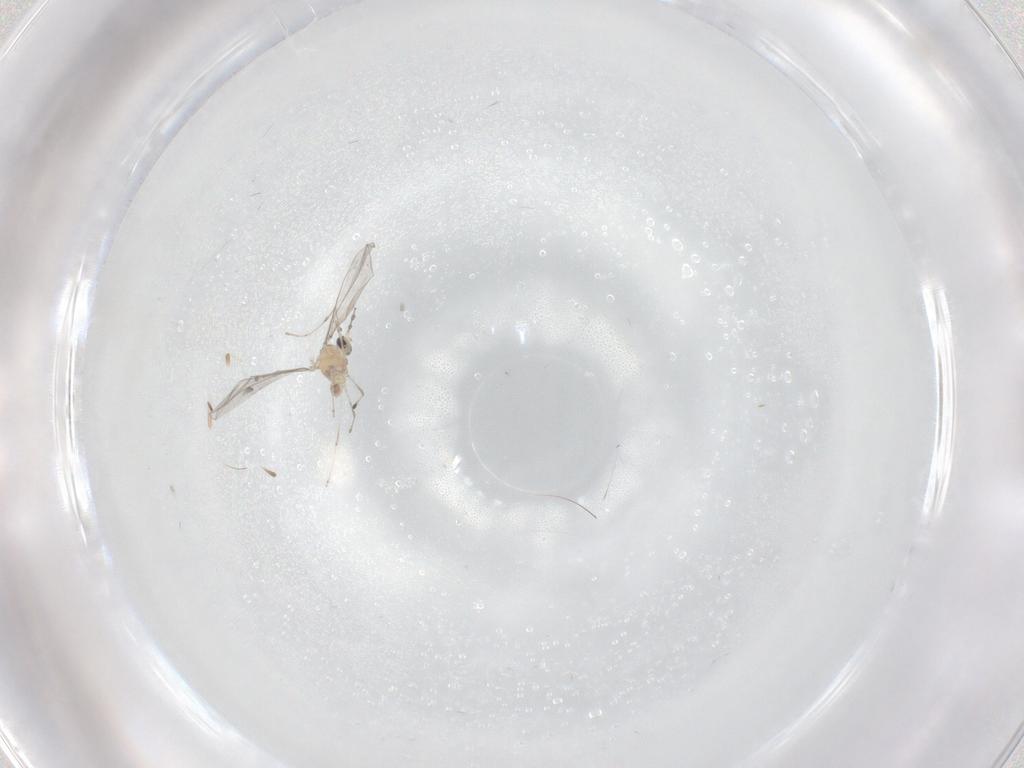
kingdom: Animalia
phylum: Arthropoda
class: Insecta
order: Diptera
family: Cecidomyiidae
